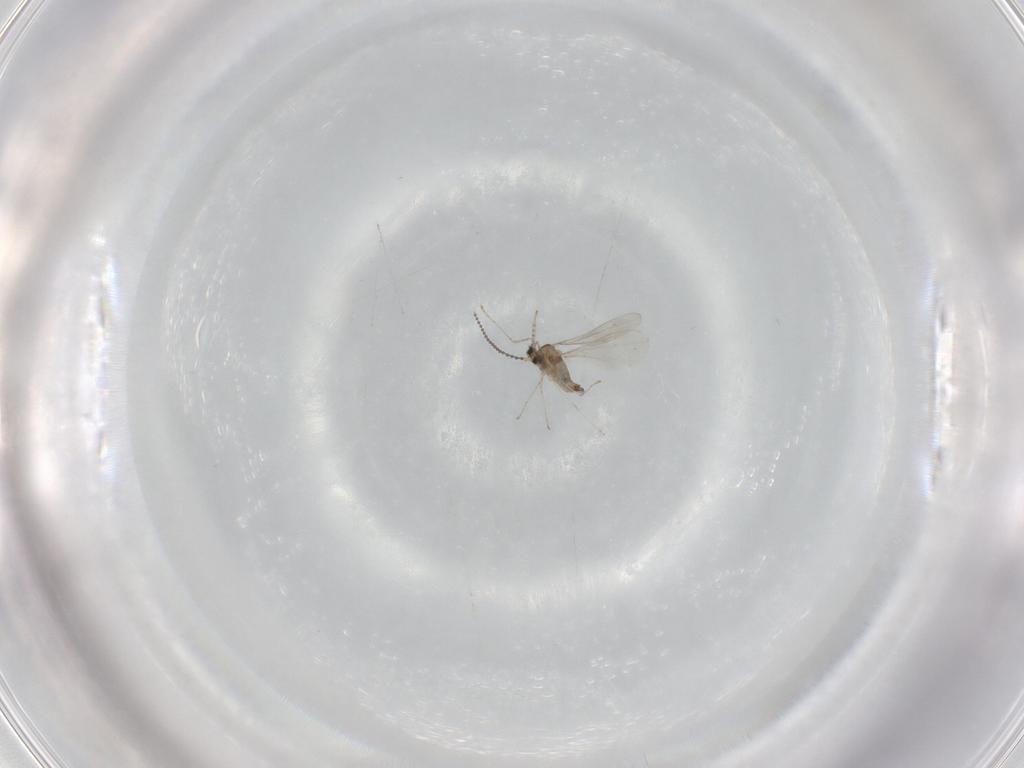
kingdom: Animalia
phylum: Arthropoda
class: Insecta
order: Diptera
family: Cecidomyiidae
